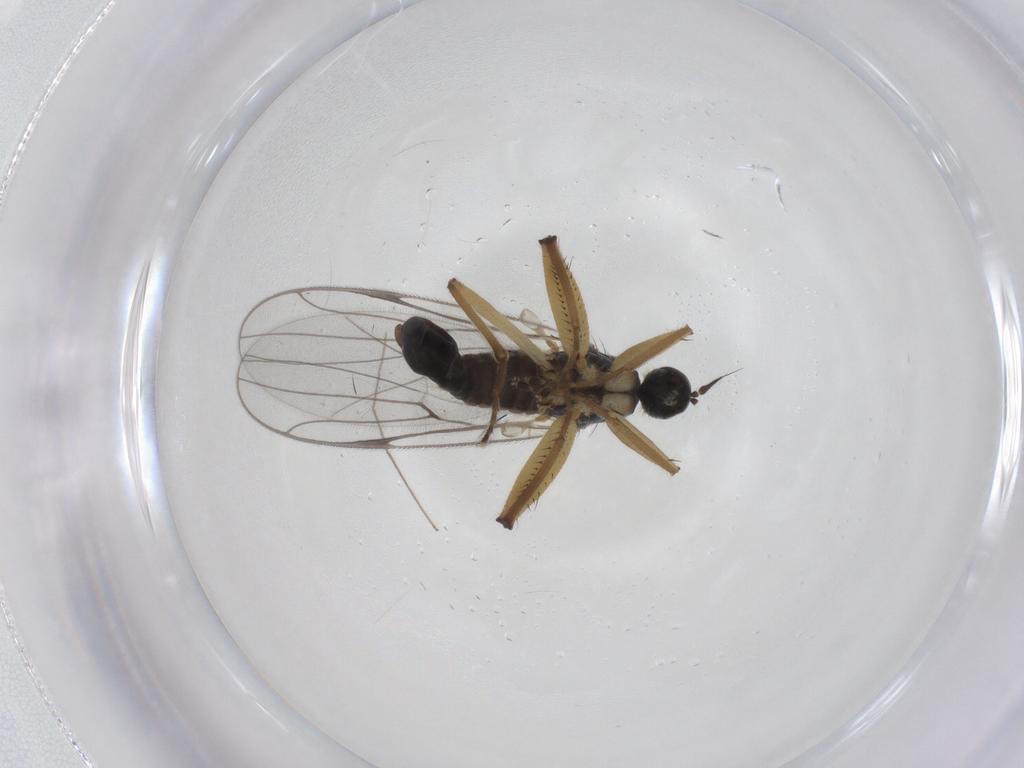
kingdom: Animalia
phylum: Arthropoda
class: Insecta
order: Diptera
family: Hybotidae
